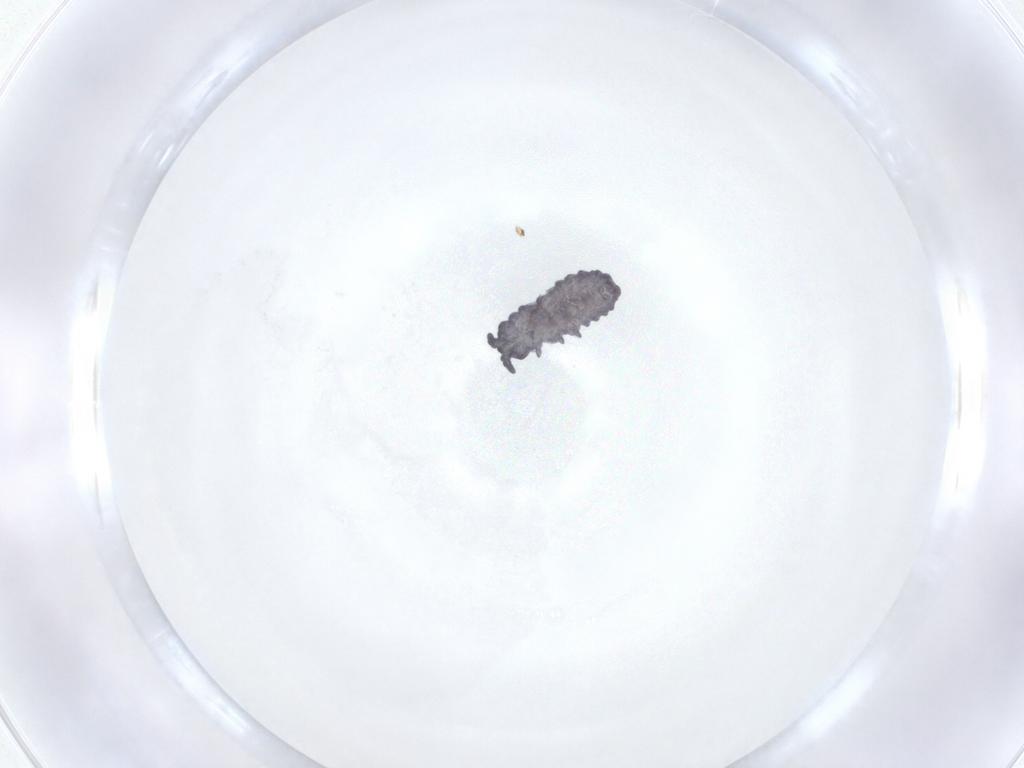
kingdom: Animalia
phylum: Arthropoda
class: Collembola
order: Poduromorpha
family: Neanuridae
